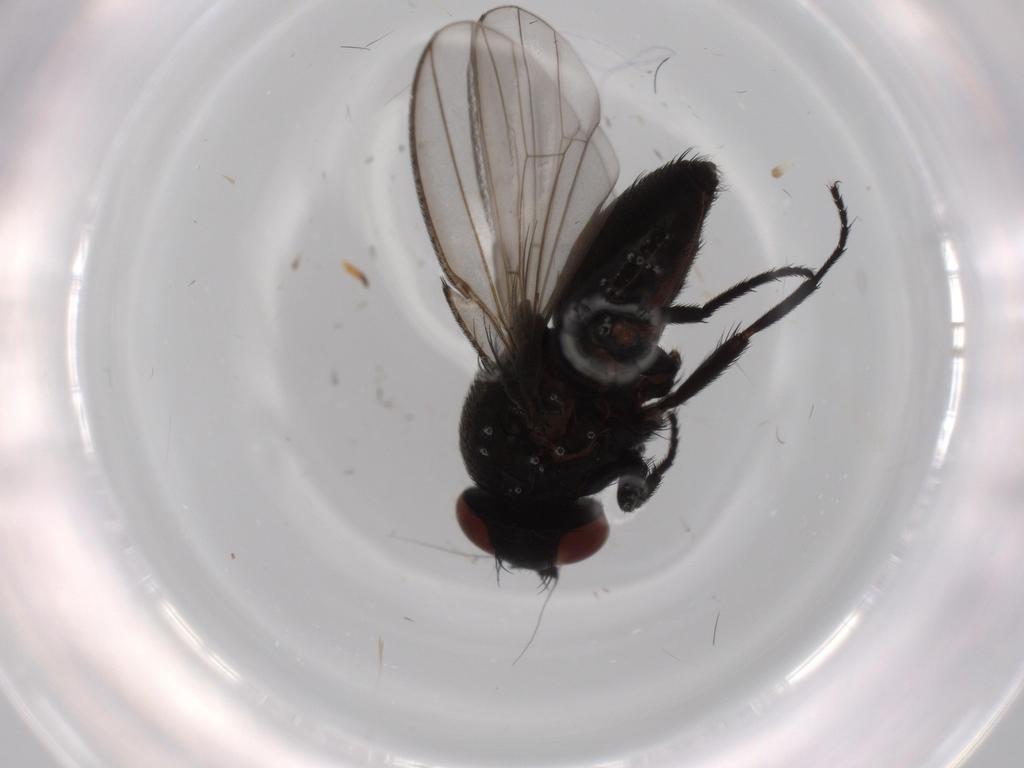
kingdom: Animalia
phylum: Arthropoda
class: Insecta
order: Diptera
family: Milichiidae
